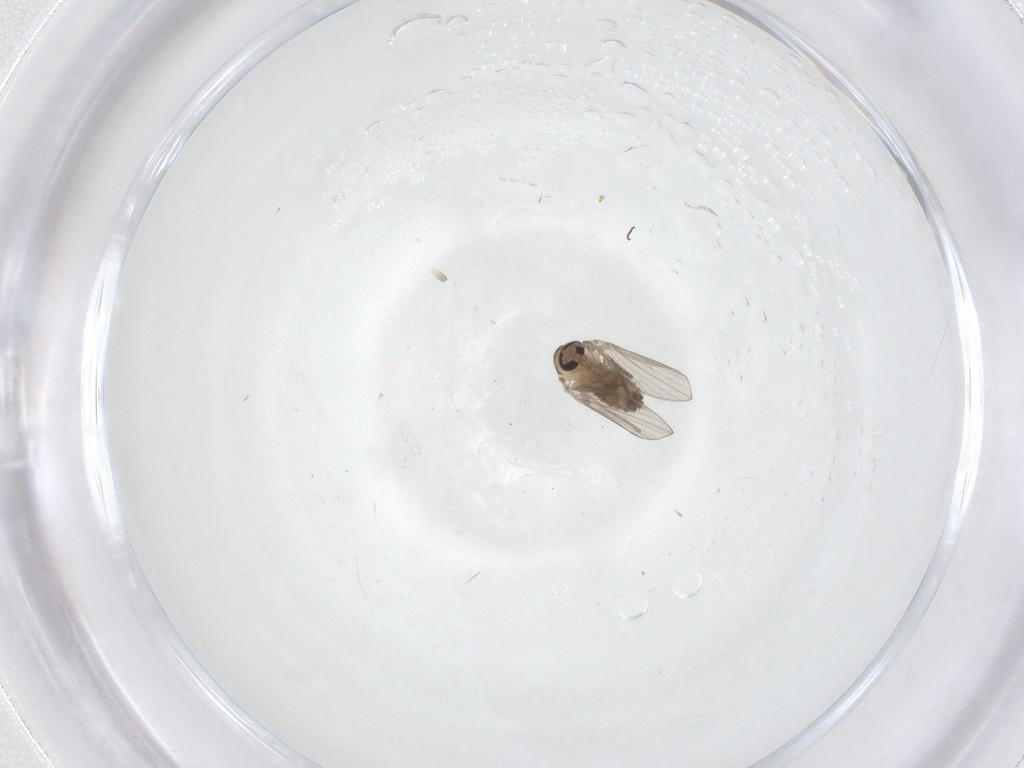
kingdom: Animalia
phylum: Arthropoda
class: Insecta
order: Diptera
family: Psychodidae
